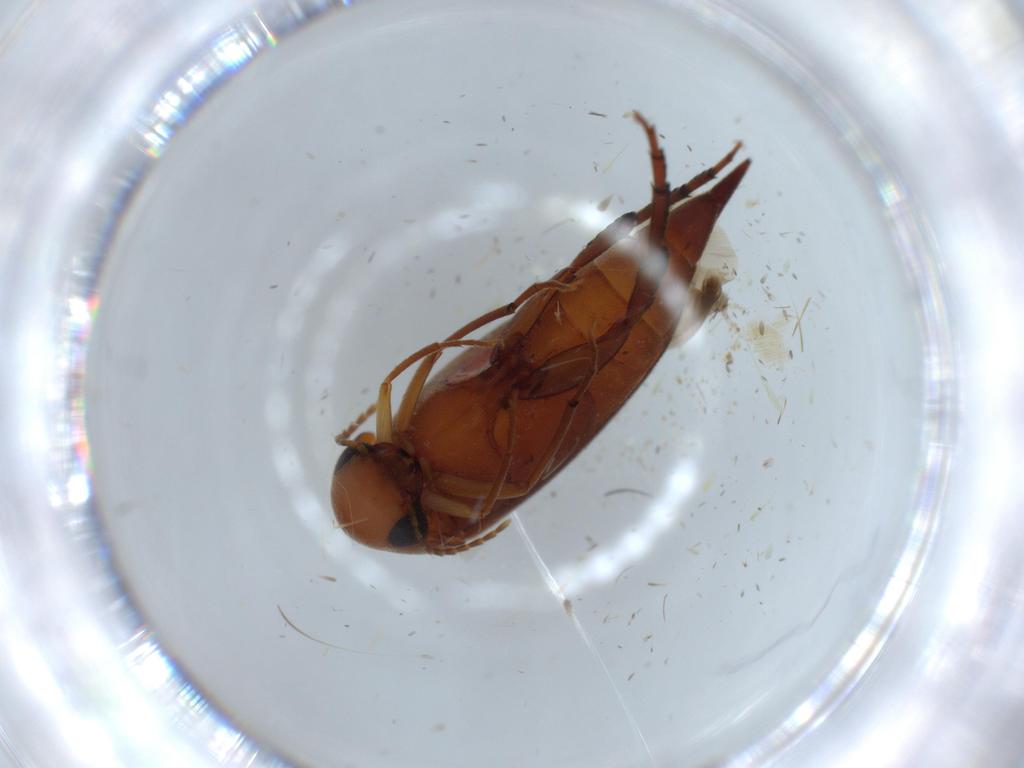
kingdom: Animalia
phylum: Arthropoda
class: Insecta
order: Coleoptera
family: Mordellidae
